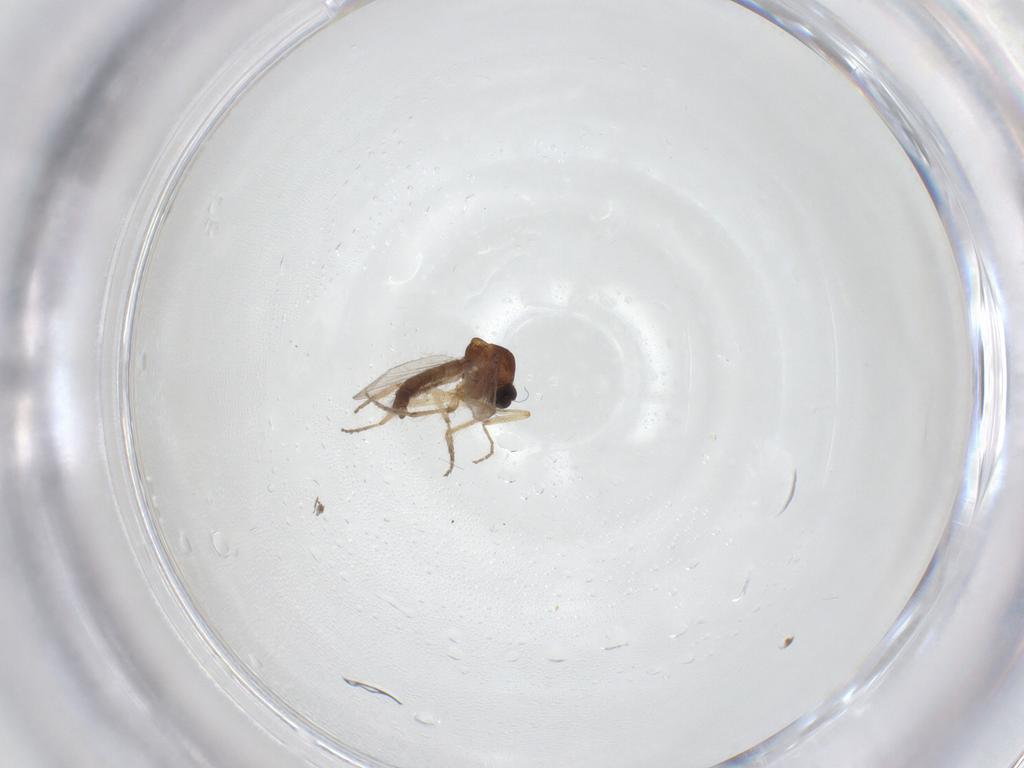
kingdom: Animalia
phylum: Arthropoda
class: Insecta
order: Diptera
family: Ceratopogonidae
